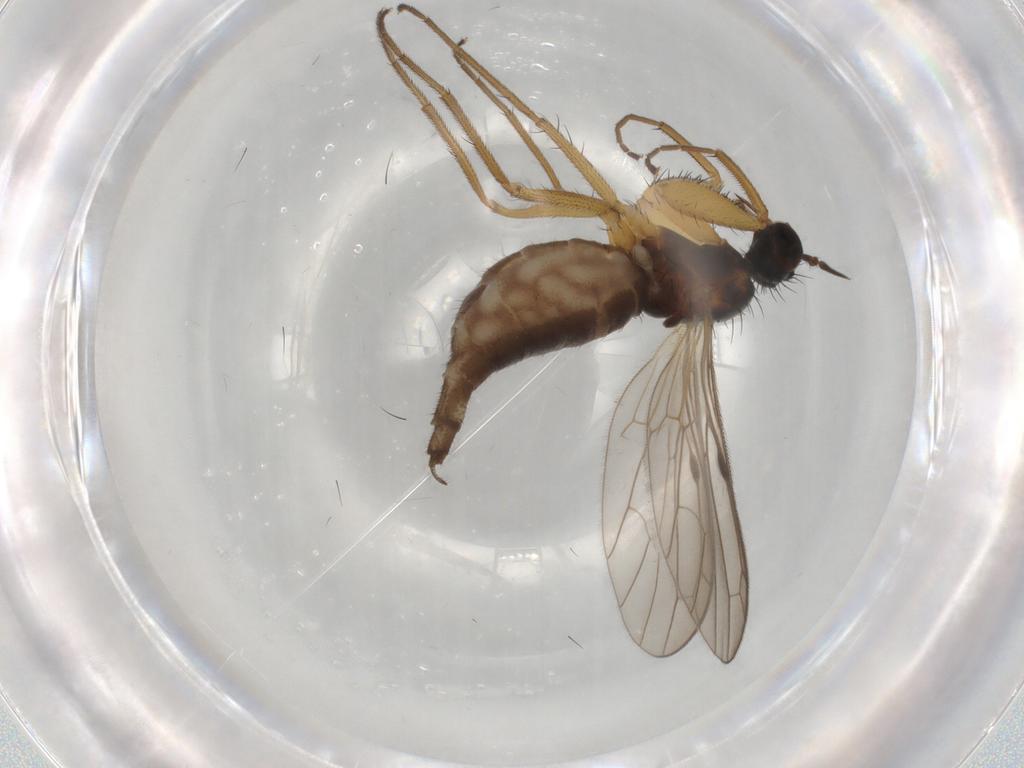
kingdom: Animalia
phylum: Arthropoda
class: Insecta
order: Diptera
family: Empididae
